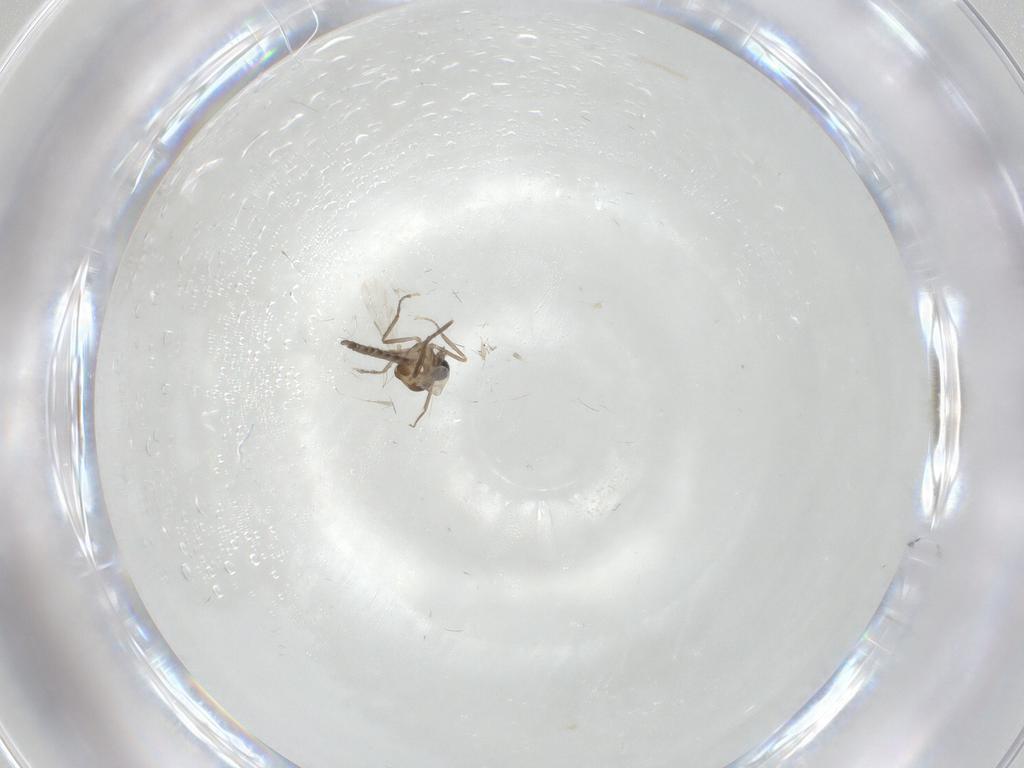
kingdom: Animalia
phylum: Arthropoda
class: Insecta
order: Diptera
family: Ceratopogonidae
